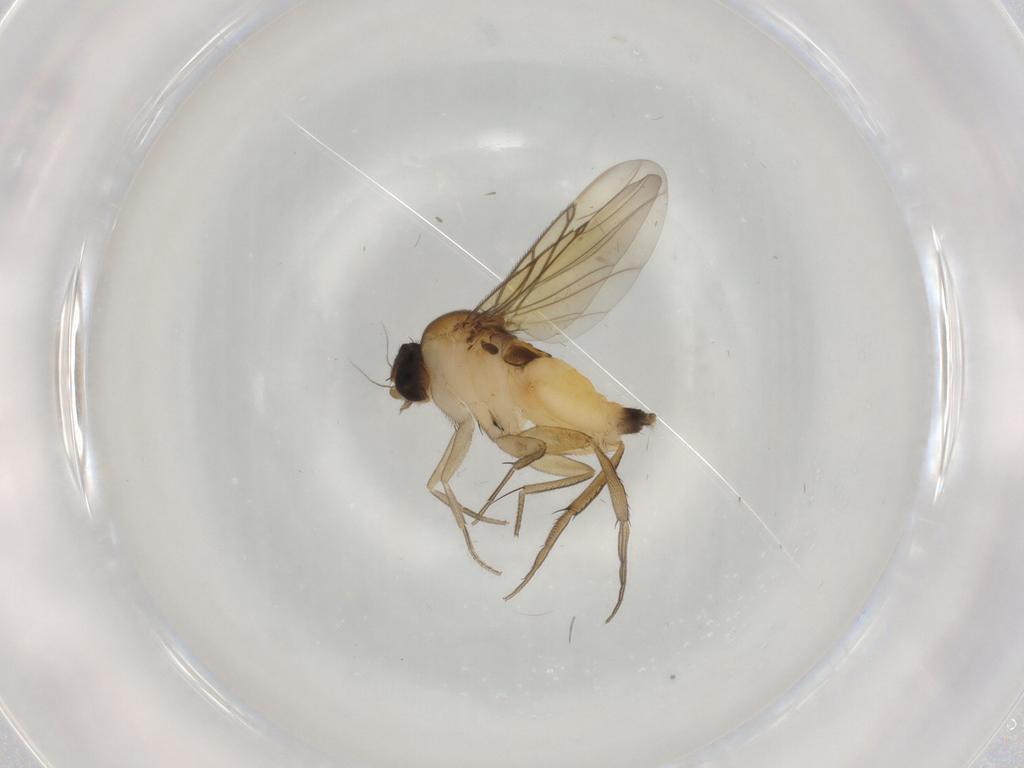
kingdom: Animalia
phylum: Arthropoda
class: Insecta
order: Diptera
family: Phoridae
